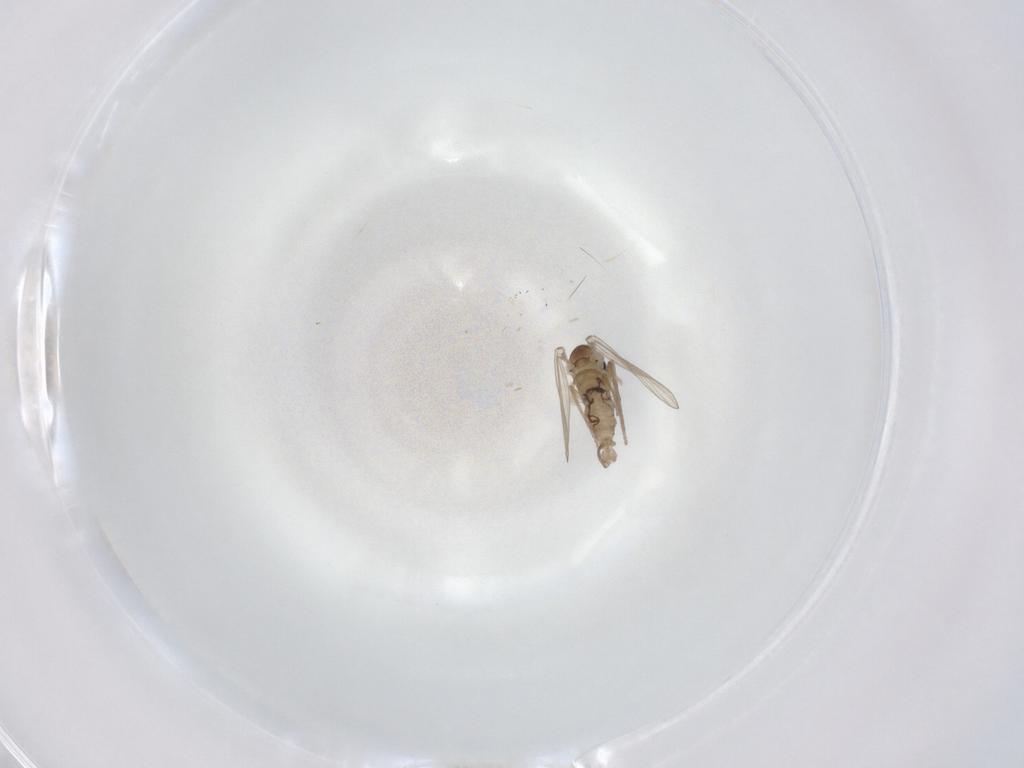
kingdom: Animalia
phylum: Arthropoda
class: Insecta
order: Diptera
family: Psychodidae
